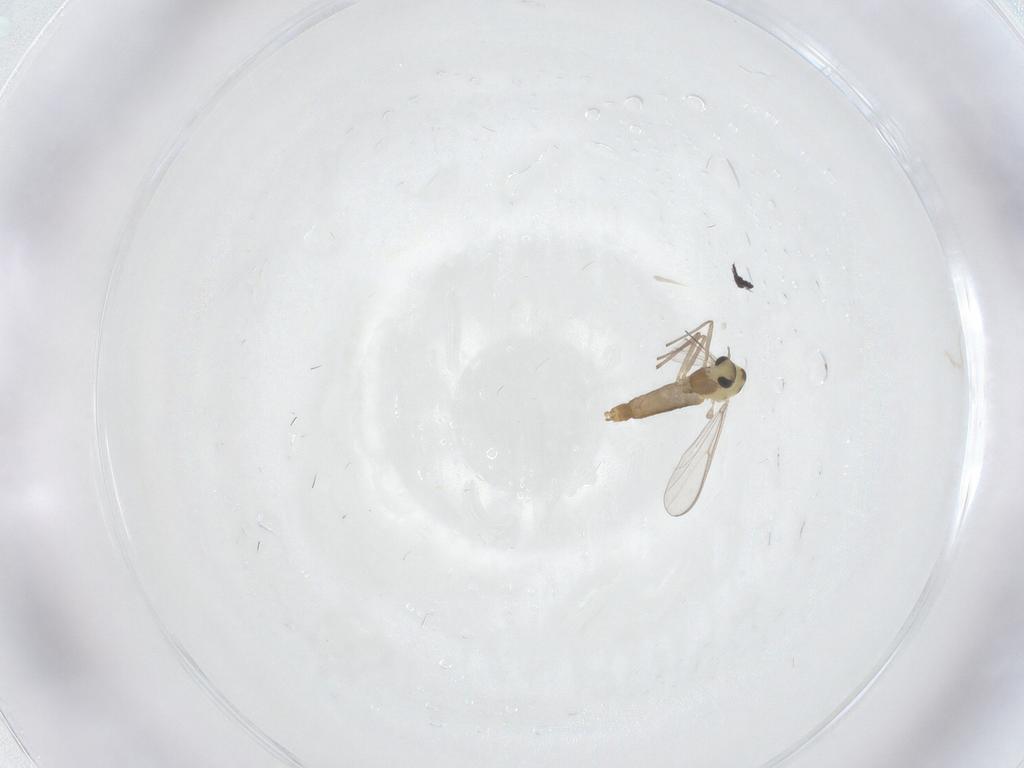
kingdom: Animalia
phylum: Arthropoda
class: Insecta
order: Diptera
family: Chironomidae
